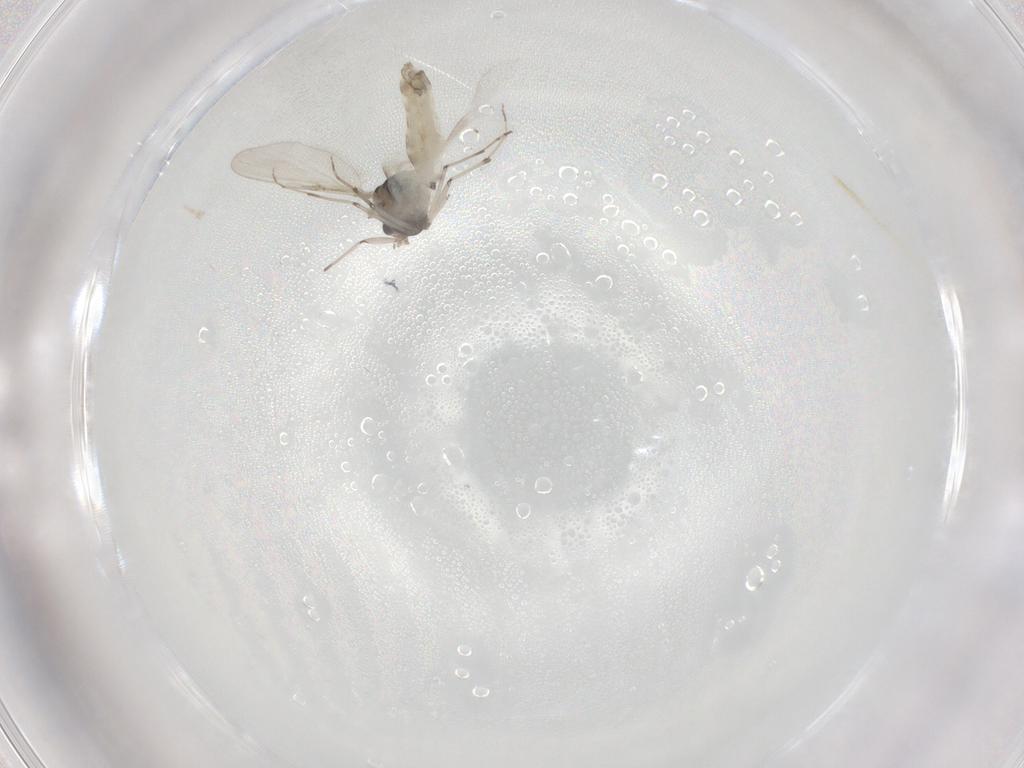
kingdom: Animalia
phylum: Arthropoda
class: Insecta
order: Diptera
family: Chironomidae
